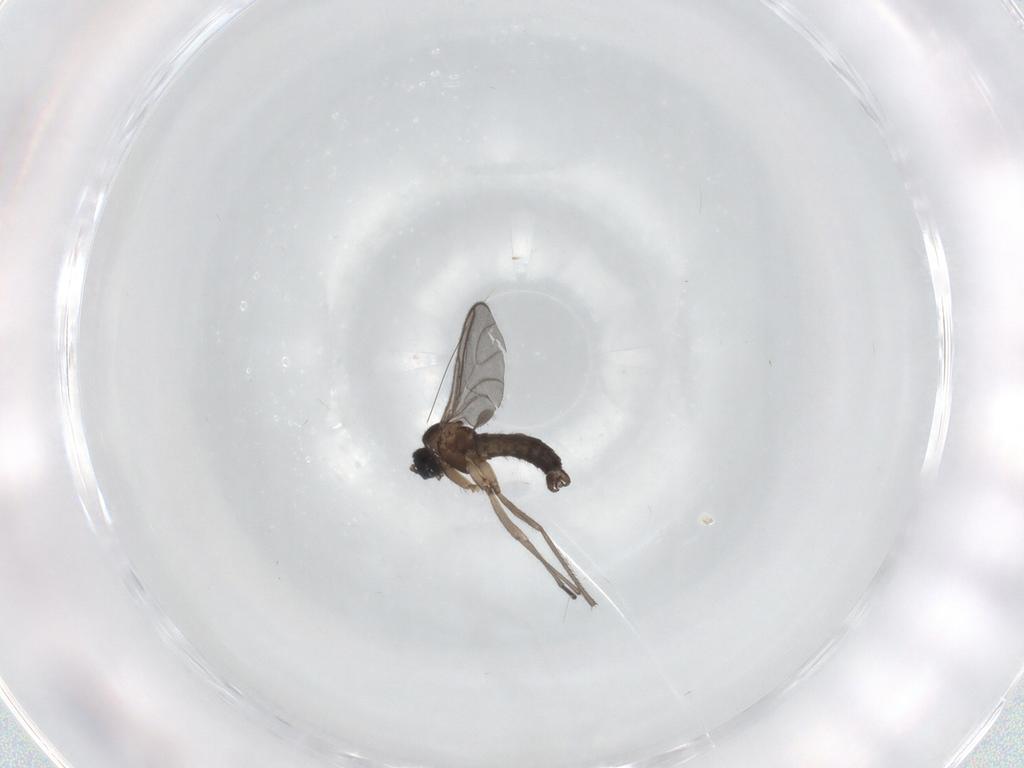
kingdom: Animalia
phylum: Arthropoda
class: Insecta
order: Diptera
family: Sciaridae
